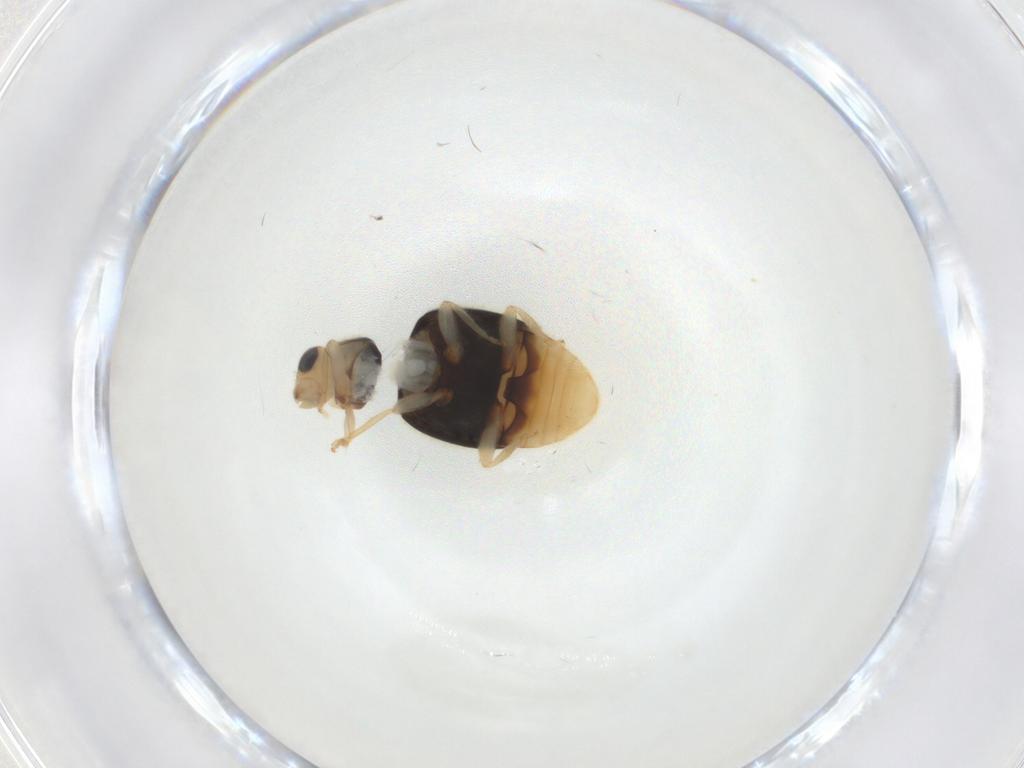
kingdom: Animalia
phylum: Arthropoda
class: Insecta
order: Coleoptera
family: Coccinellidae
